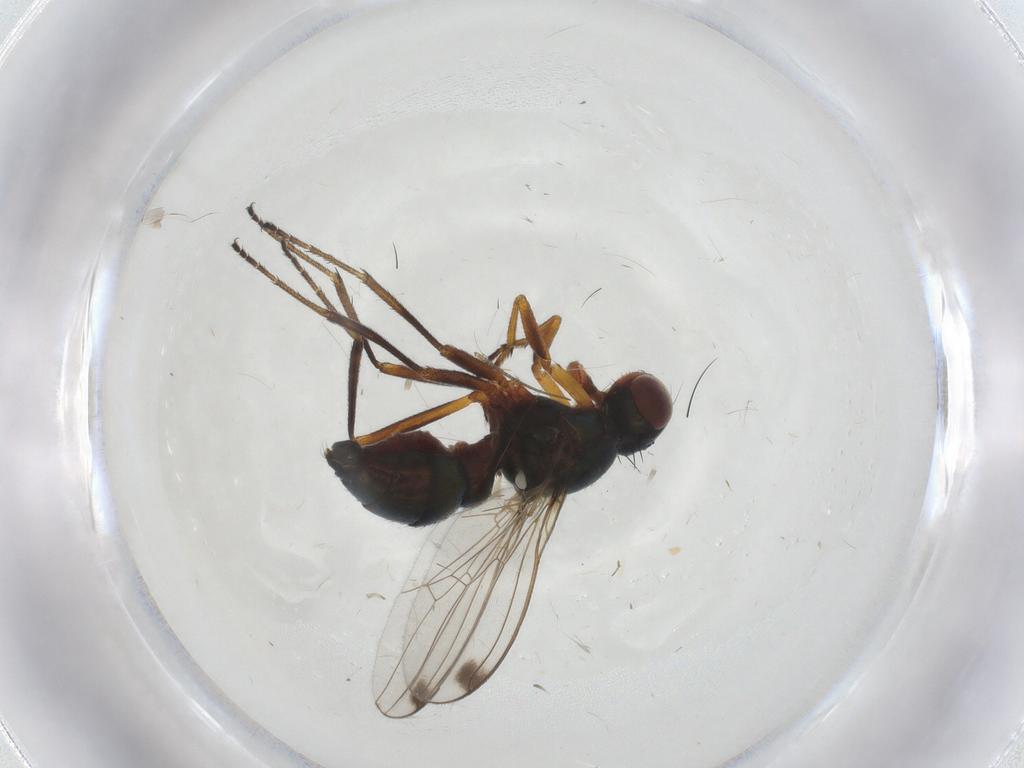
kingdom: Animalia
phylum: Arthropoda
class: Insecta
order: Diptera
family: Sepsidae
